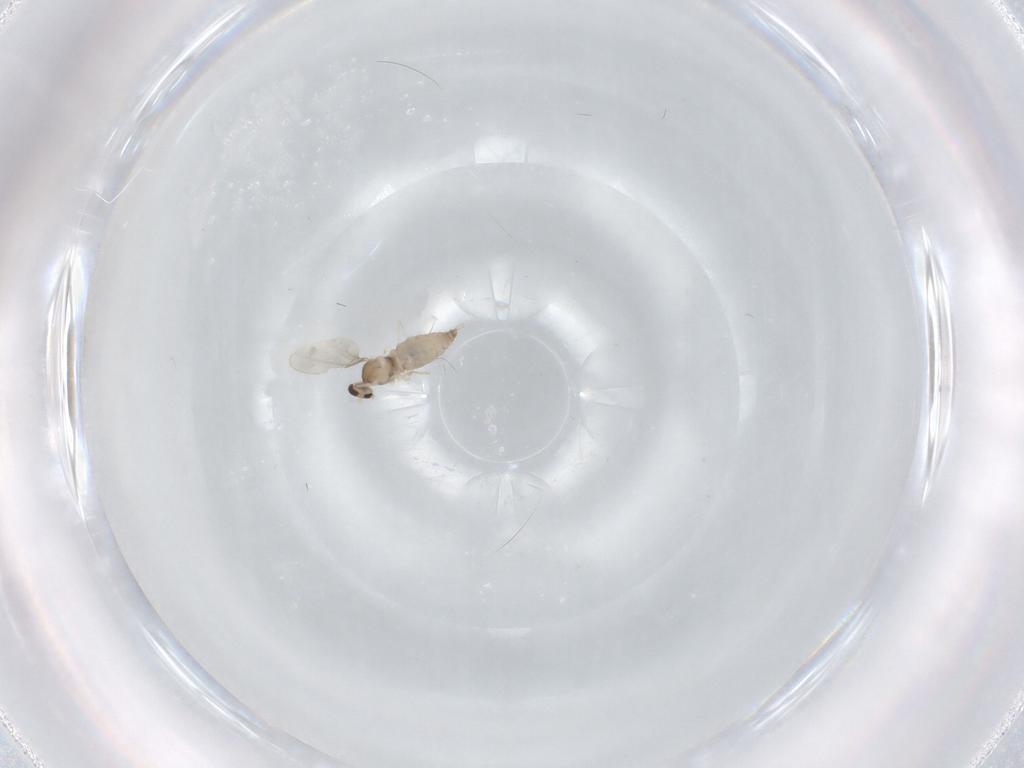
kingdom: Animalia
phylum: Arthropoda
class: Insecta
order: Diptera
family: Cecidomyiidae
